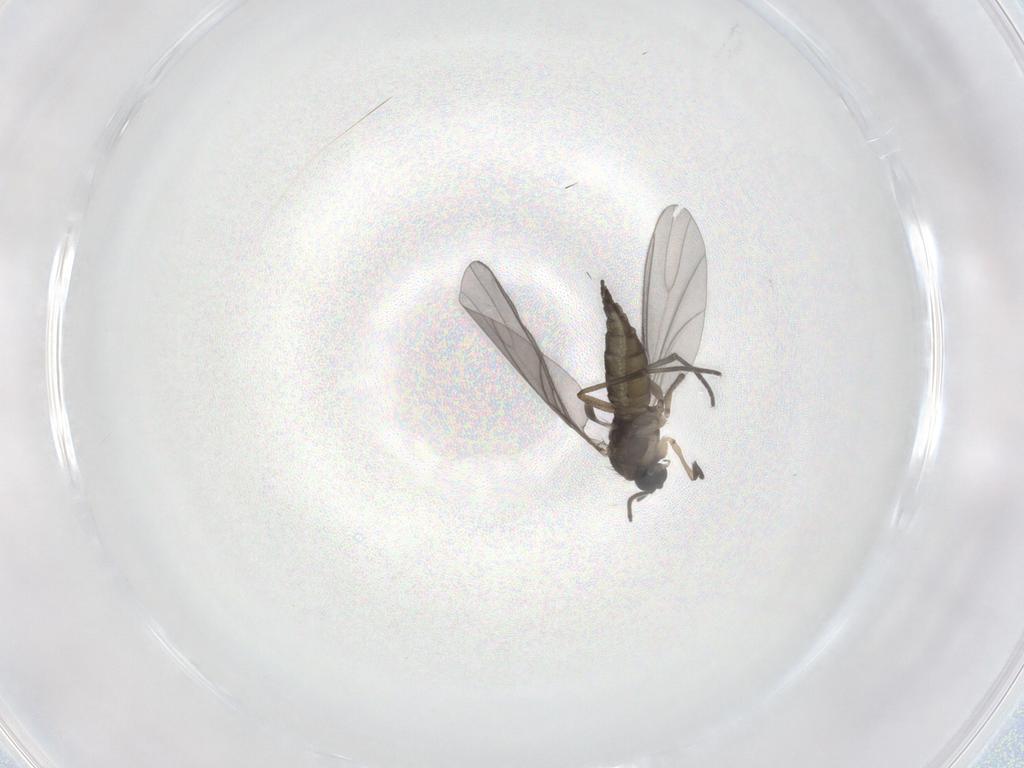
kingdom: Animalia
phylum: Arthropoda
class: Insecta
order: Diptera
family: Sciaridae
